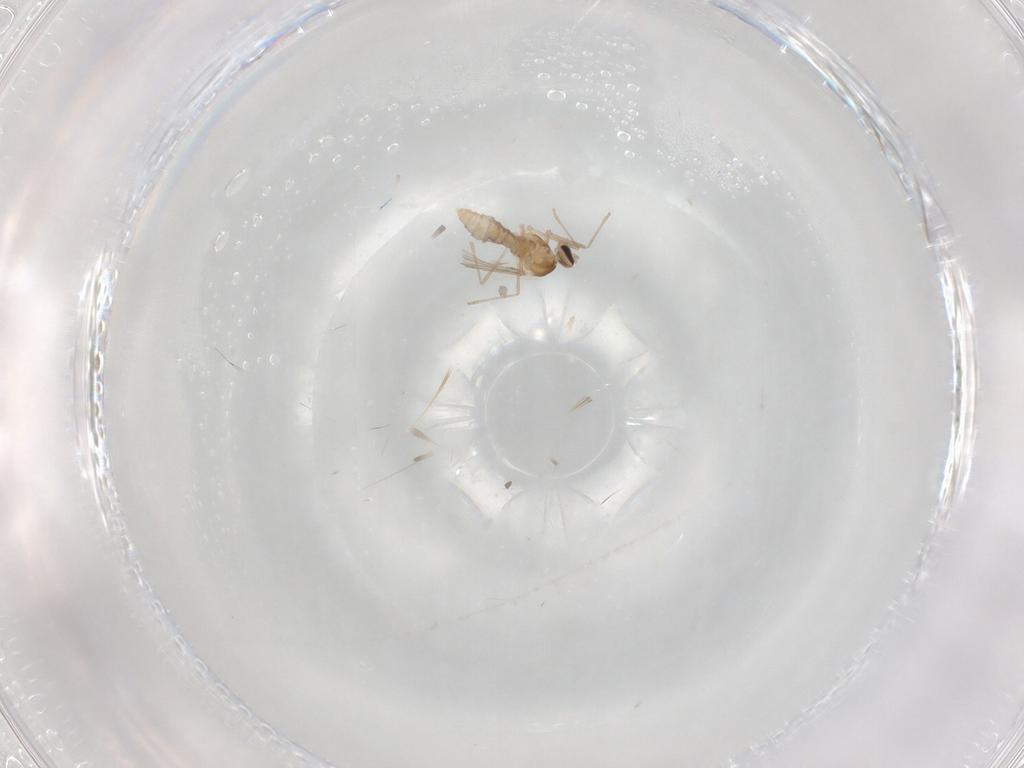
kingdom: Animalia
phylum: Arthropoda
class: Insecta
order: Diptera
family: Cecidomyiidae
